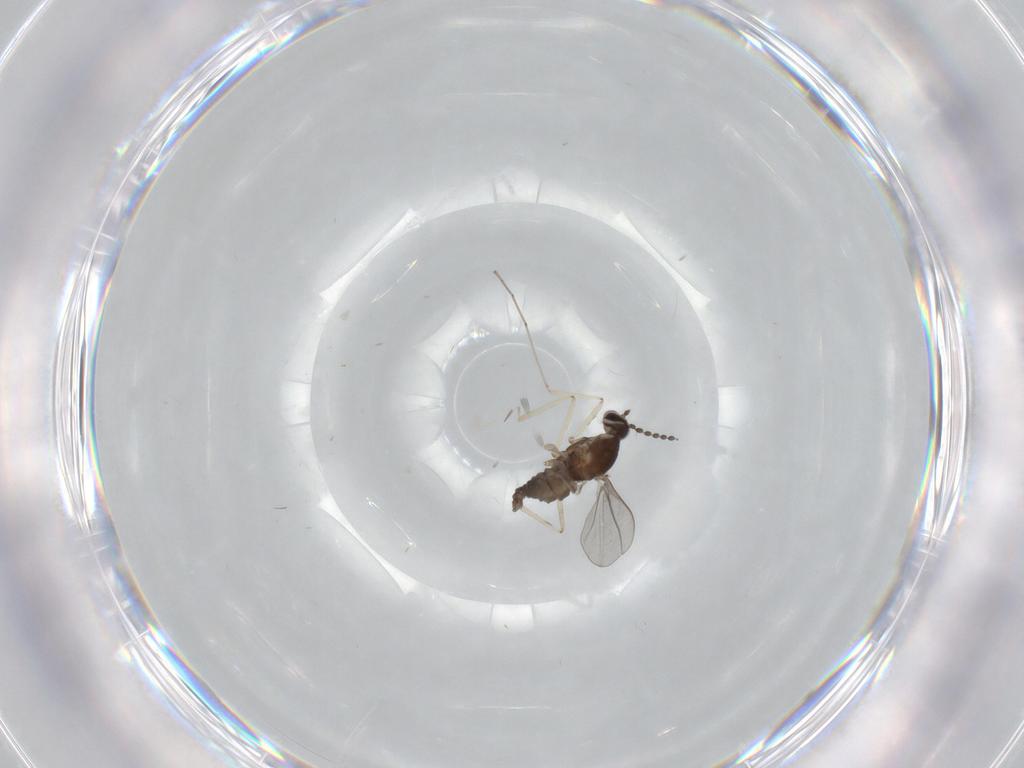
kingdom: Animalia
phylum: Arthropoda
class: Insecta
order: Diptera
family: Cecidomyiidae
